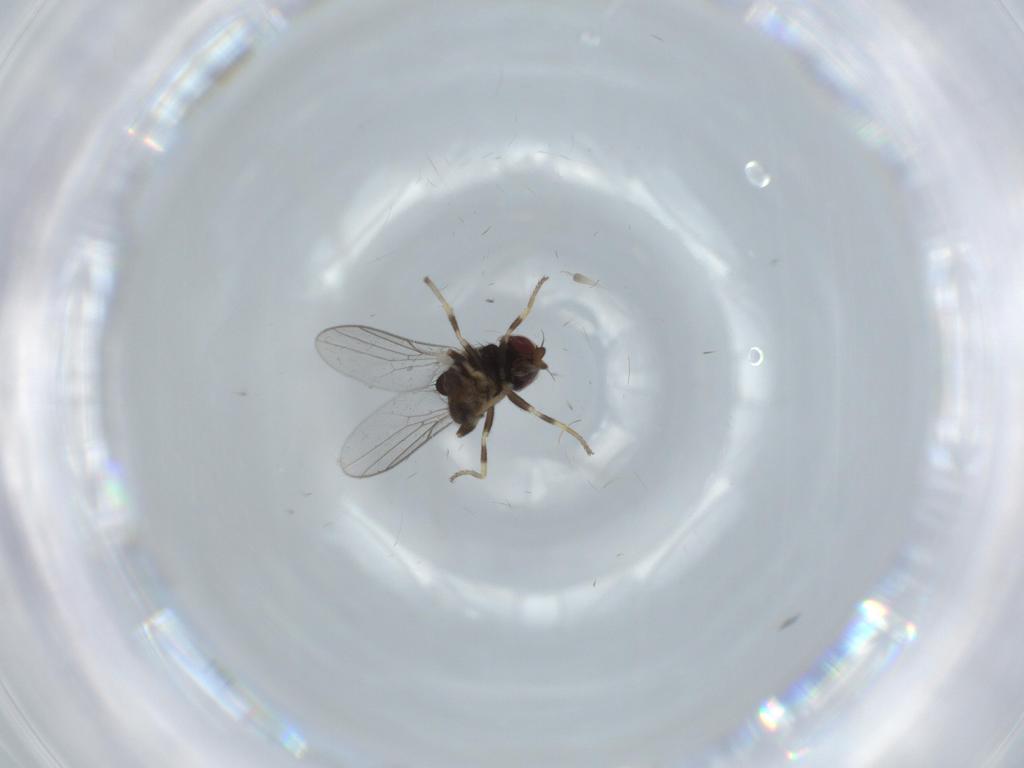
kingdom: Animalia
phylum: Arthropoda
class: Insecta
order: Diptera
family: Chloropidae
